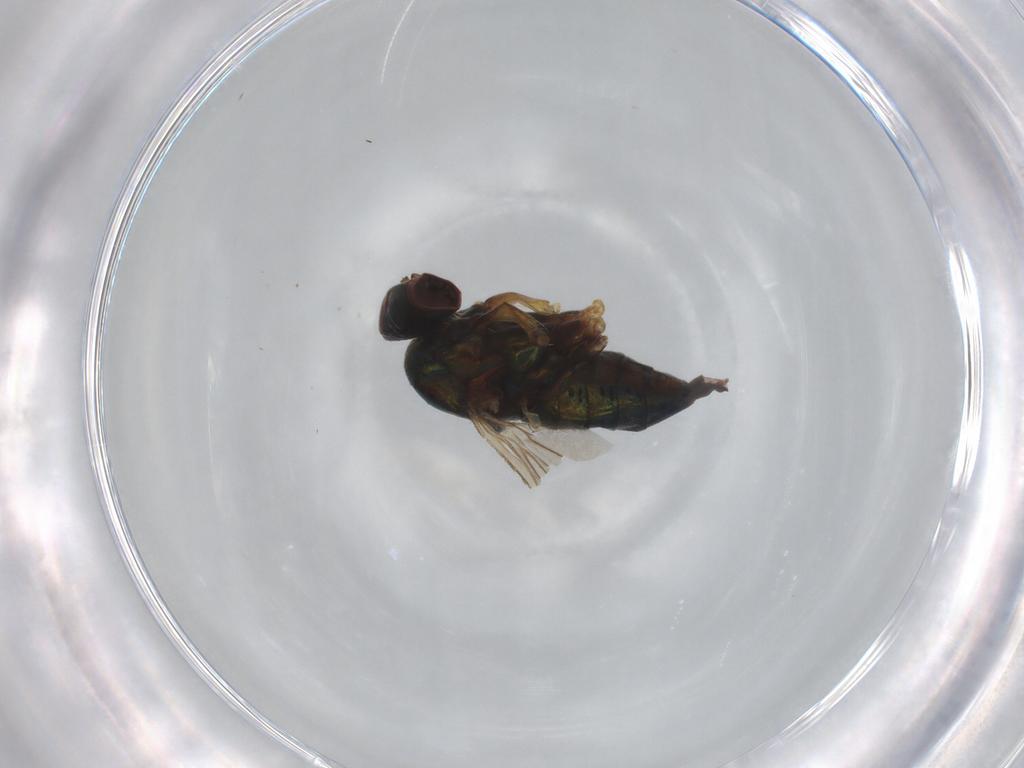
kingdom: Animalia
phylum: Arthropoda
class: Insecta
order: Diptera
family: Dolichopodidae
